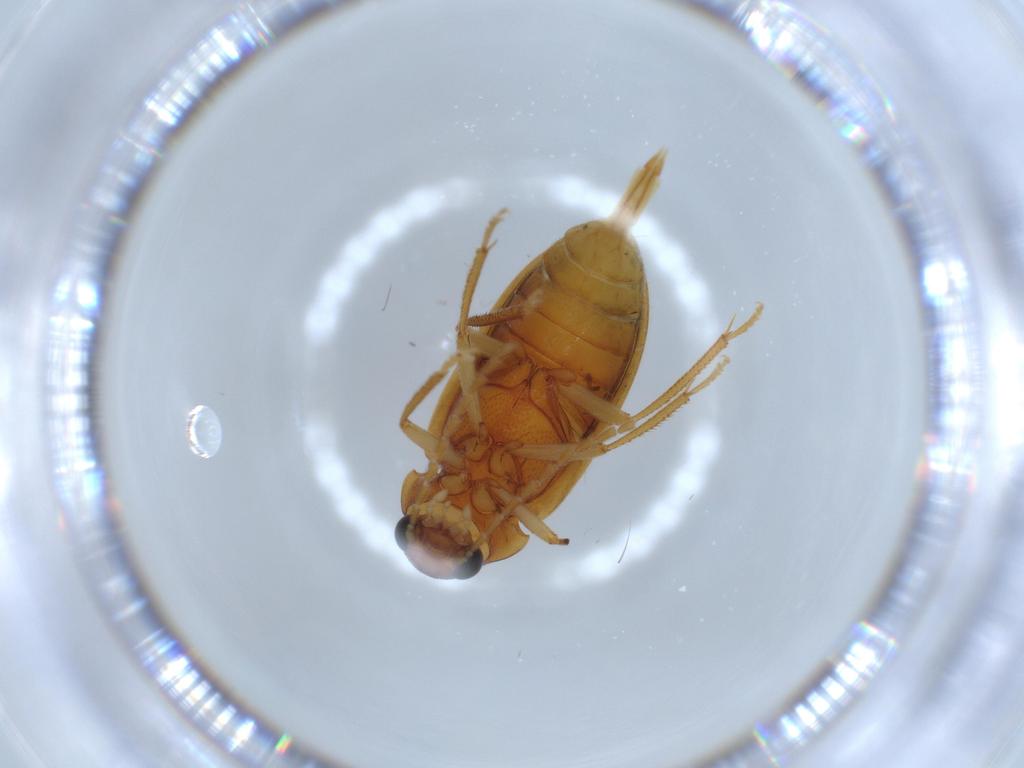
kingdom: Animalia
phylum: Arthropoda
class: Insecta
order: Coleoptera
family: Ptilodactylidae
